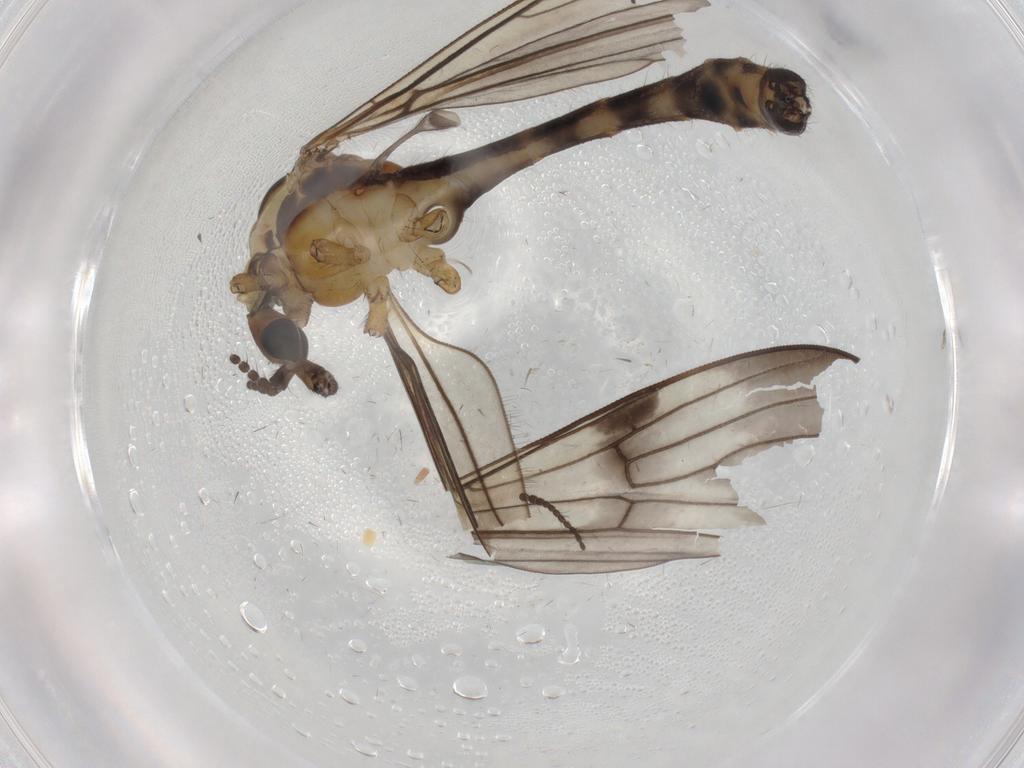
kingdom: Animalia
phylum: Arthropoda
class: Insecta
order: Diptera
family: Limoniidae
